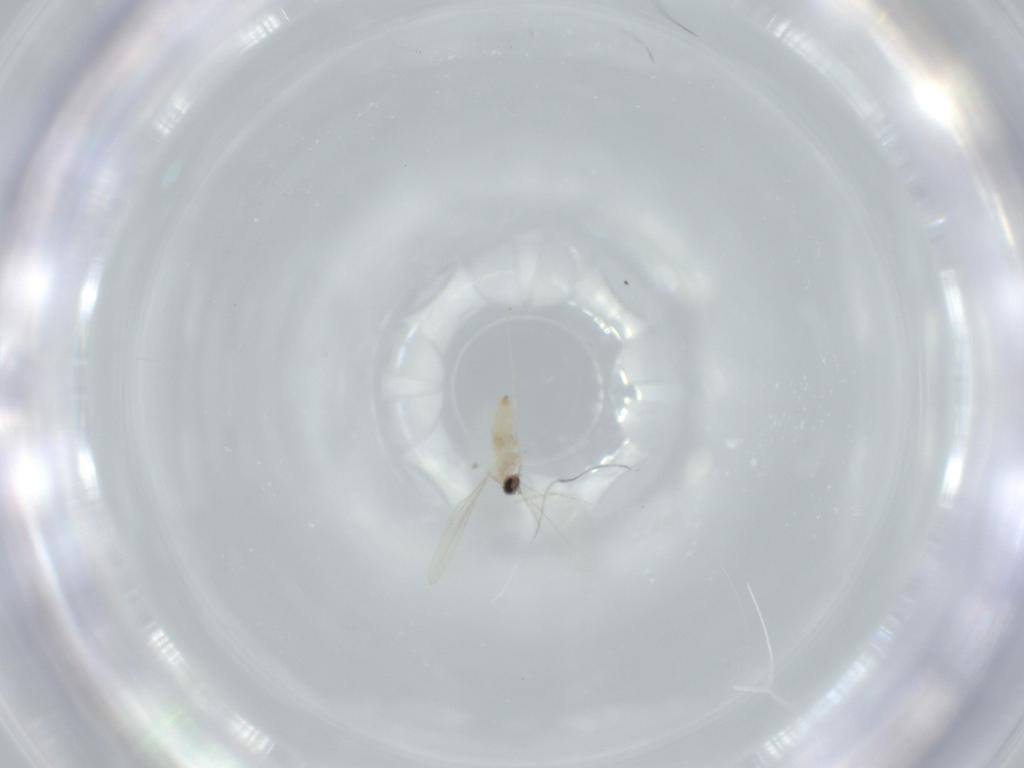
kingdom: Animalia
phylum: Arthropoda
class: Insecta
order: Diptera
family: Cecidomyiidae
